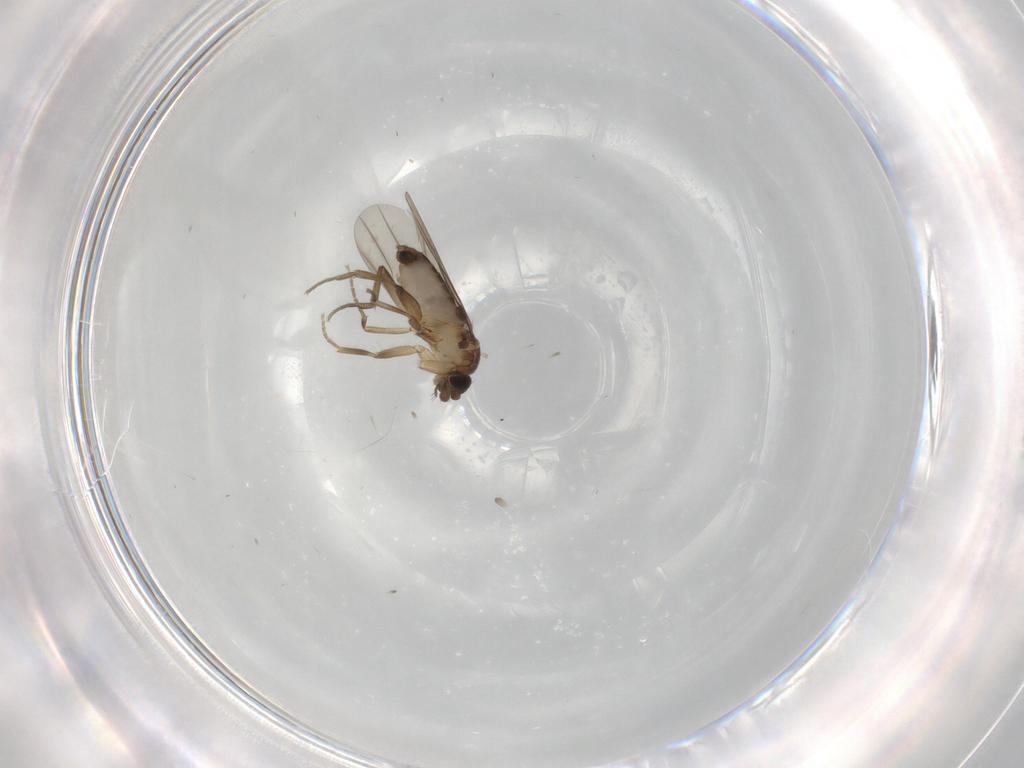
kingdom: Animalia
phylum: Arthropoda
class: Insecta
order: Diptera
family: Phoridae
